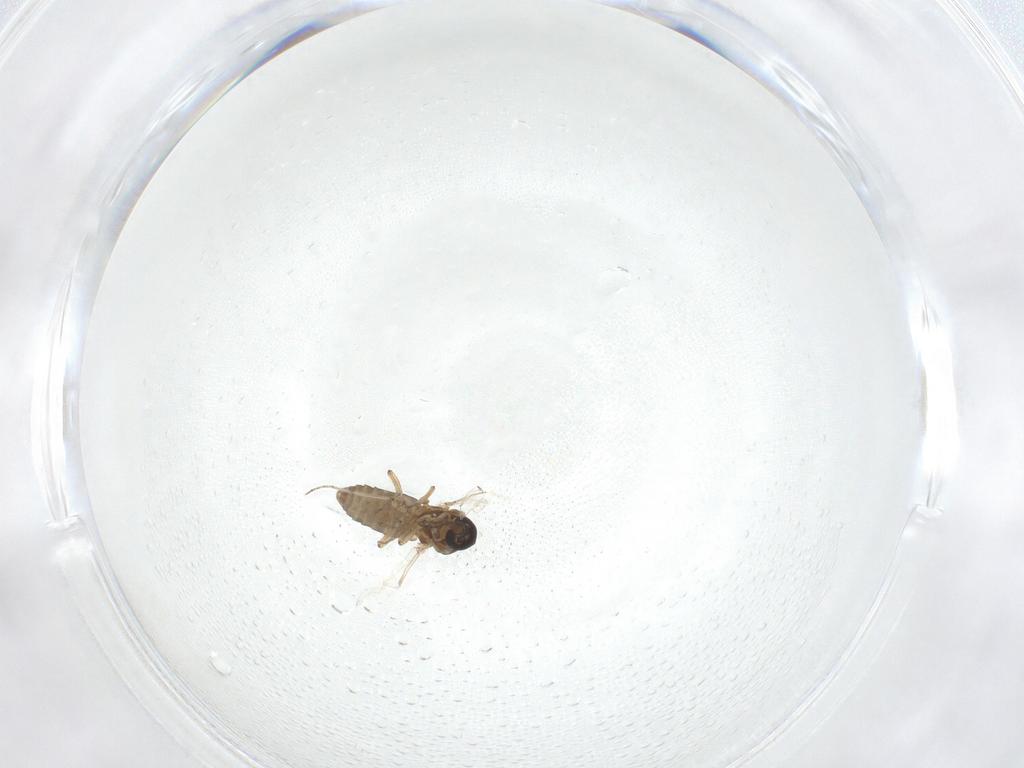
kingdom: Animalia
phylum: Arthropoda
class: Insecta
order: Diptera
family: Ceratopogonidae
